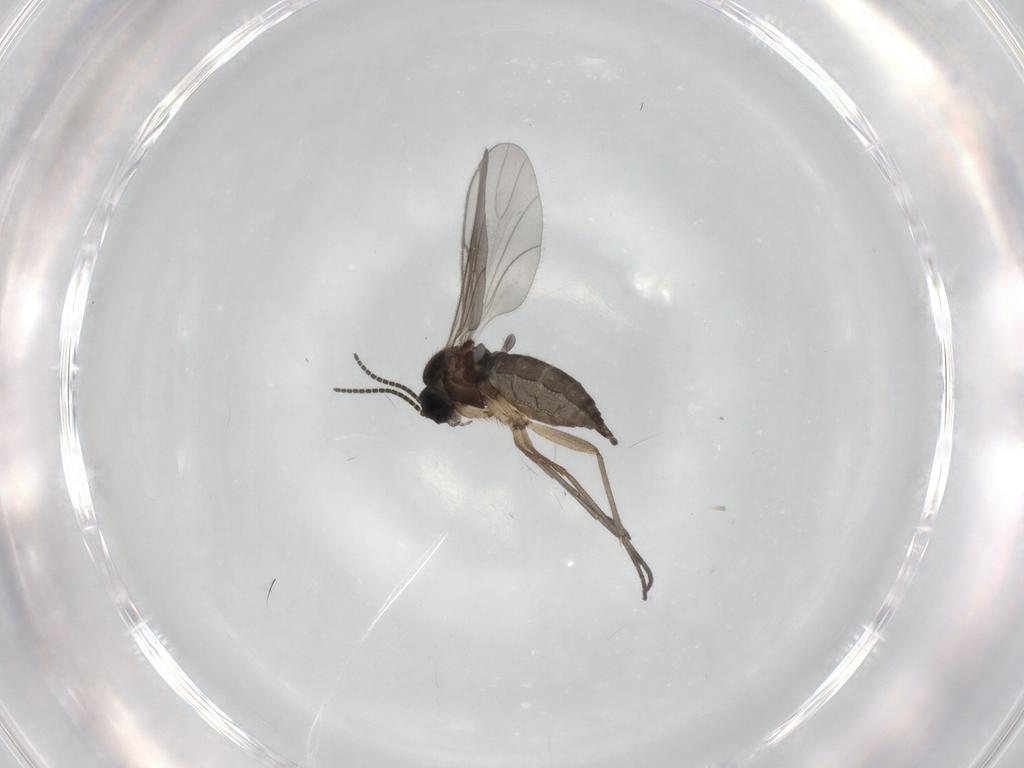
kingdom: Animalia
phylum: Arthropoda
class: Insecta
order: Diptera
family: Sciaridae
